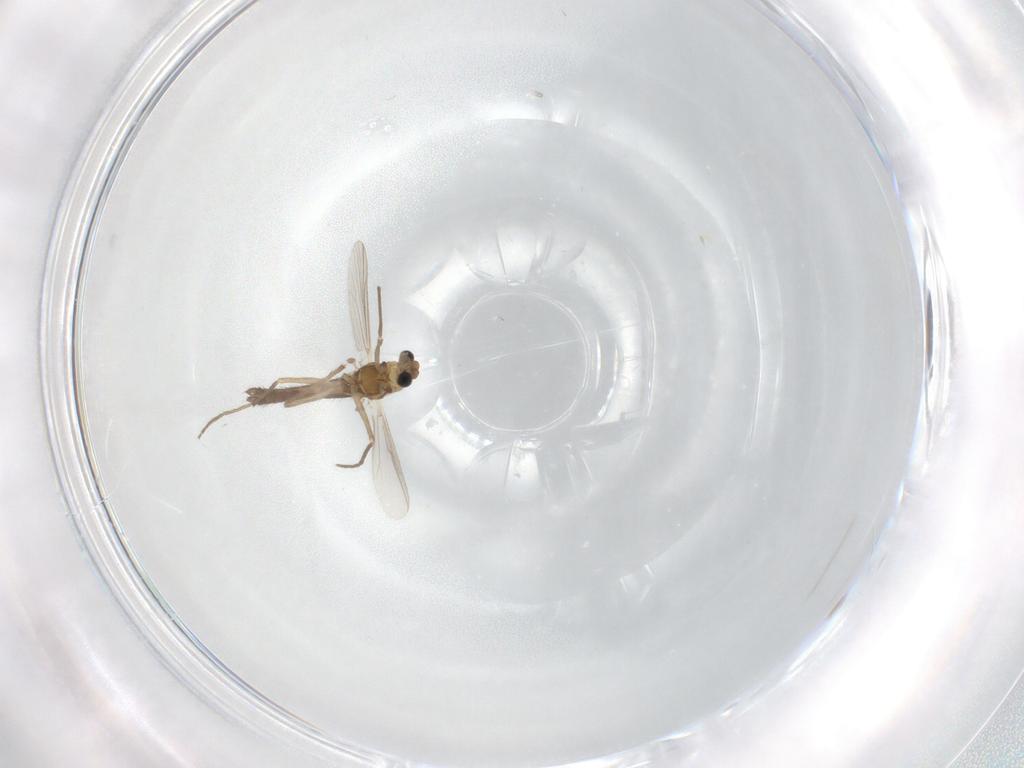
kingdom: Animalia
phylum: Arthropoda
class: Insecta
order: Diptera
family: Chironomidae
